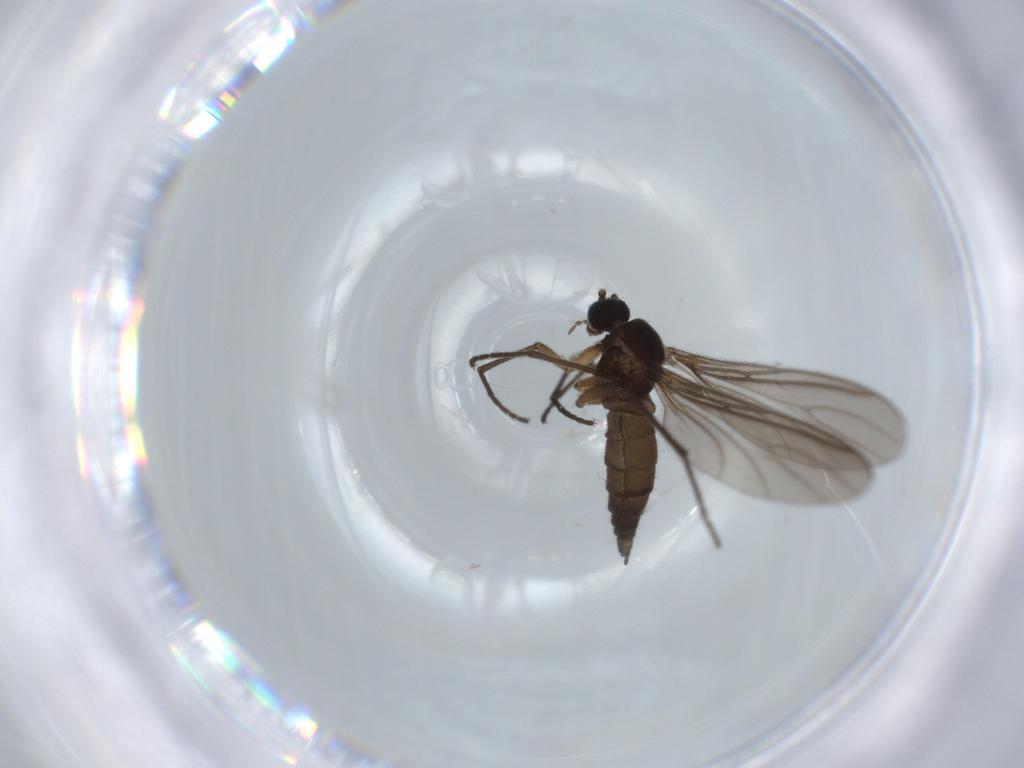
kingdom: Animalia
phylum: Arthropoda
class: Insecta
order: Diptera
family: Sciaridae
